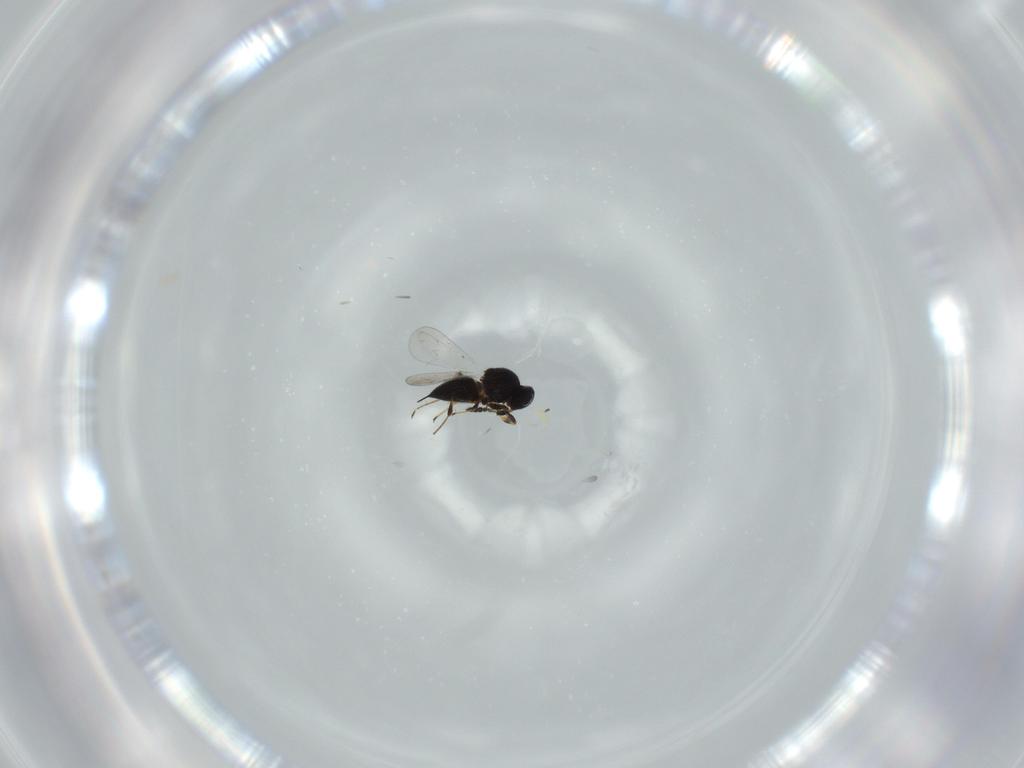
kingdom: Animalia
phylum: Arthropoda
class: Insecta
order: Hymenoptera
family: Platygastridae
